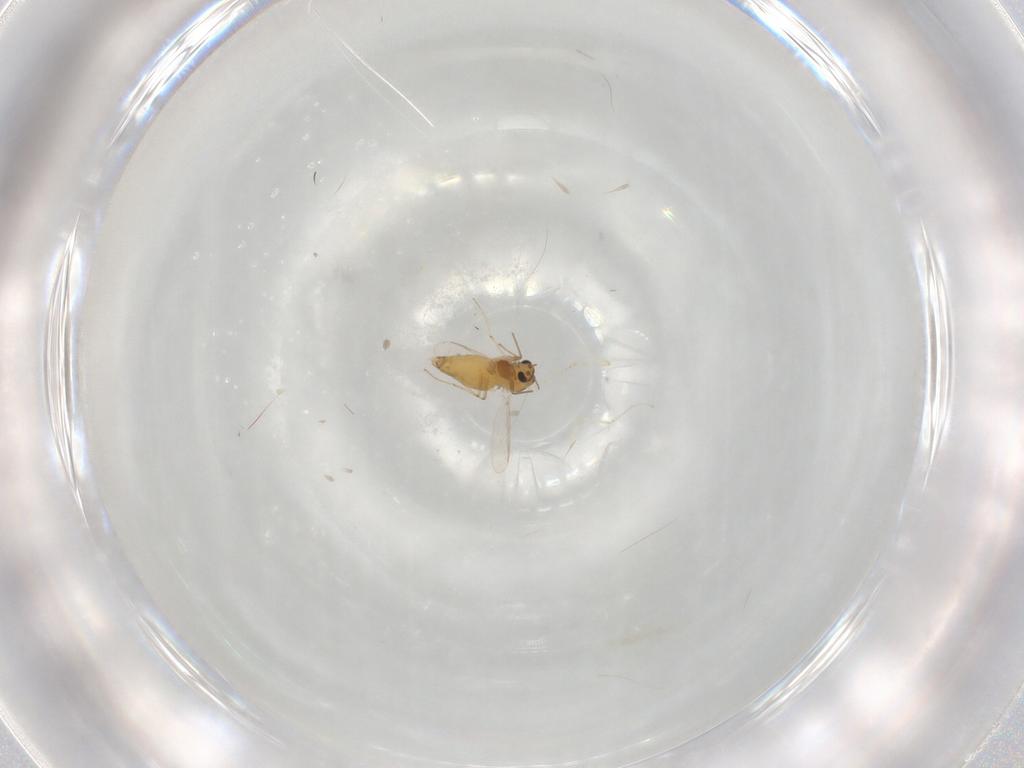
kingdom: Animalia
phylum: Arthropoda
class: Insecta
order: Diptera
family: Chironomidae
